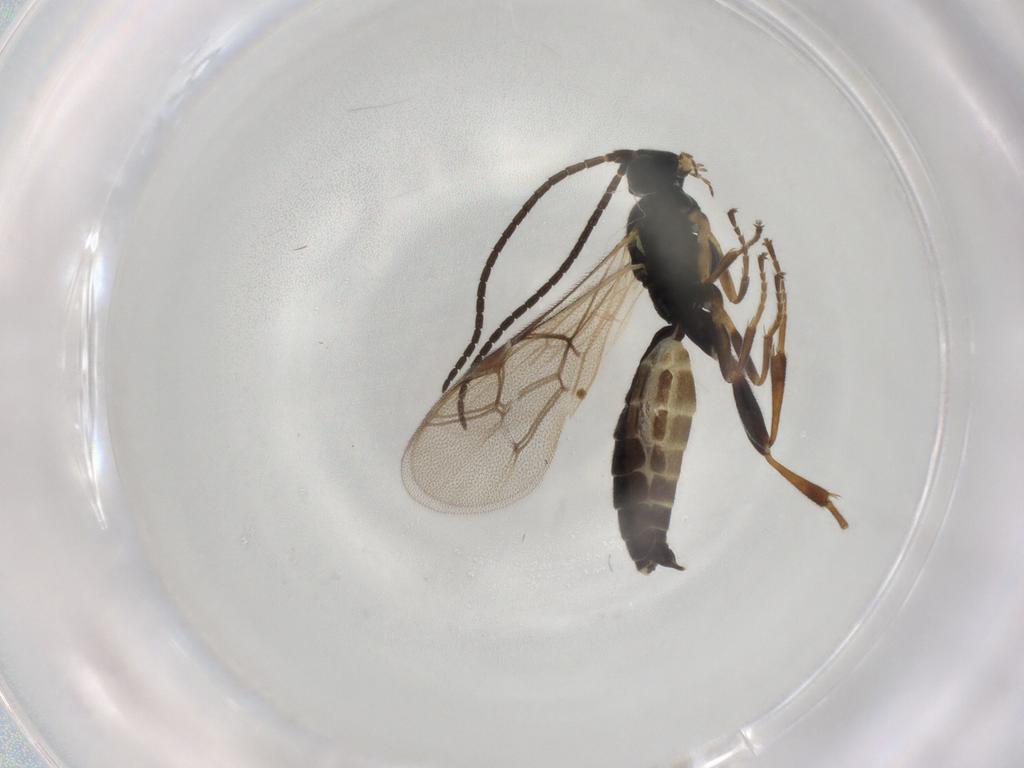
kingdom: Animalia
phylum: Arthropoda
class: Insecta
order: Hymenoptera
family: Ichneumonidae
